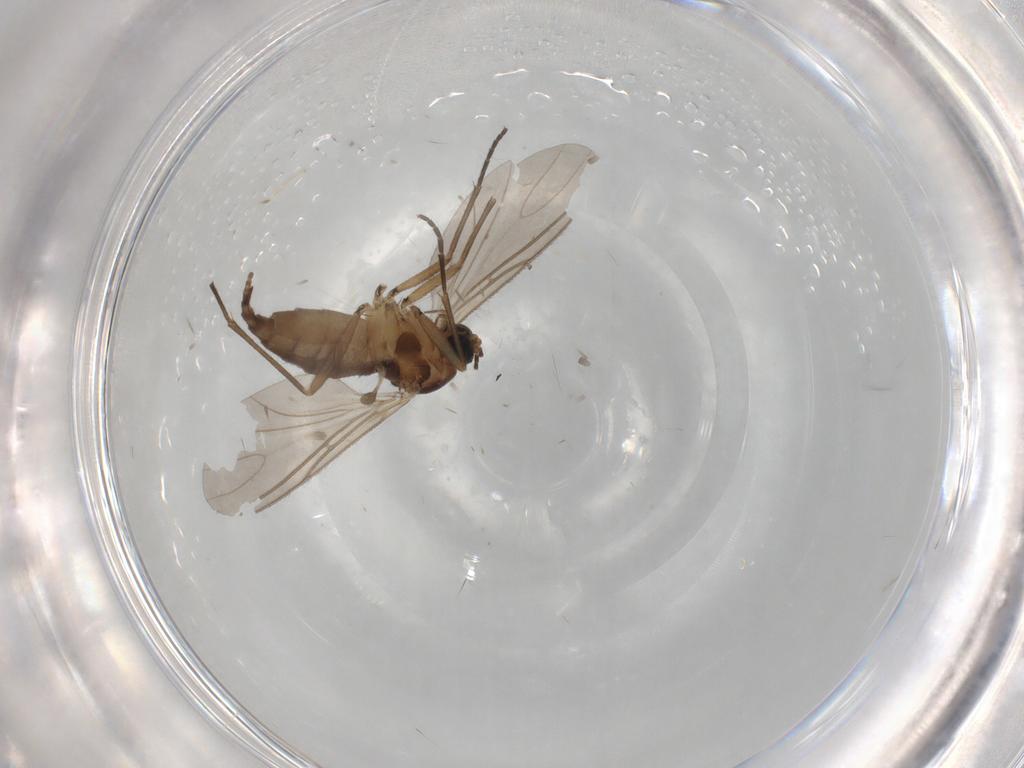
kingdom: Animalia
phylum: Arthropoda
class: Insecta
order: Diptera
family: Sciaridae
